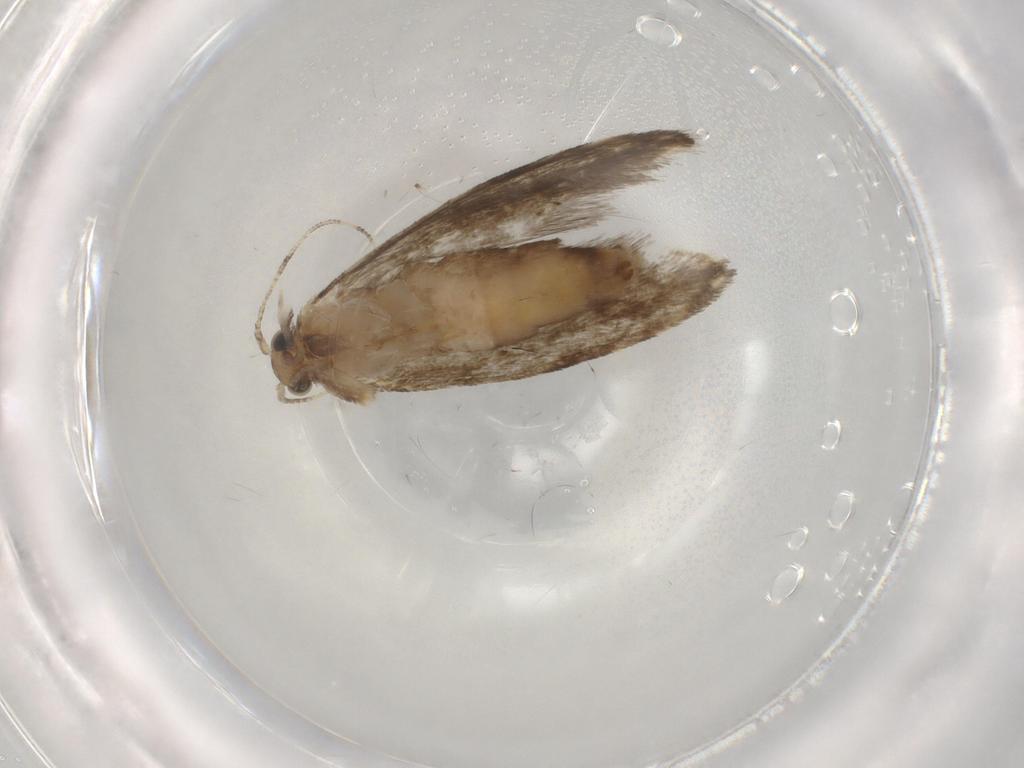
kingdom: Animalia
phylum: Arthropoda
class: Insecta
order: Lepidoptera
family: Tineidae
